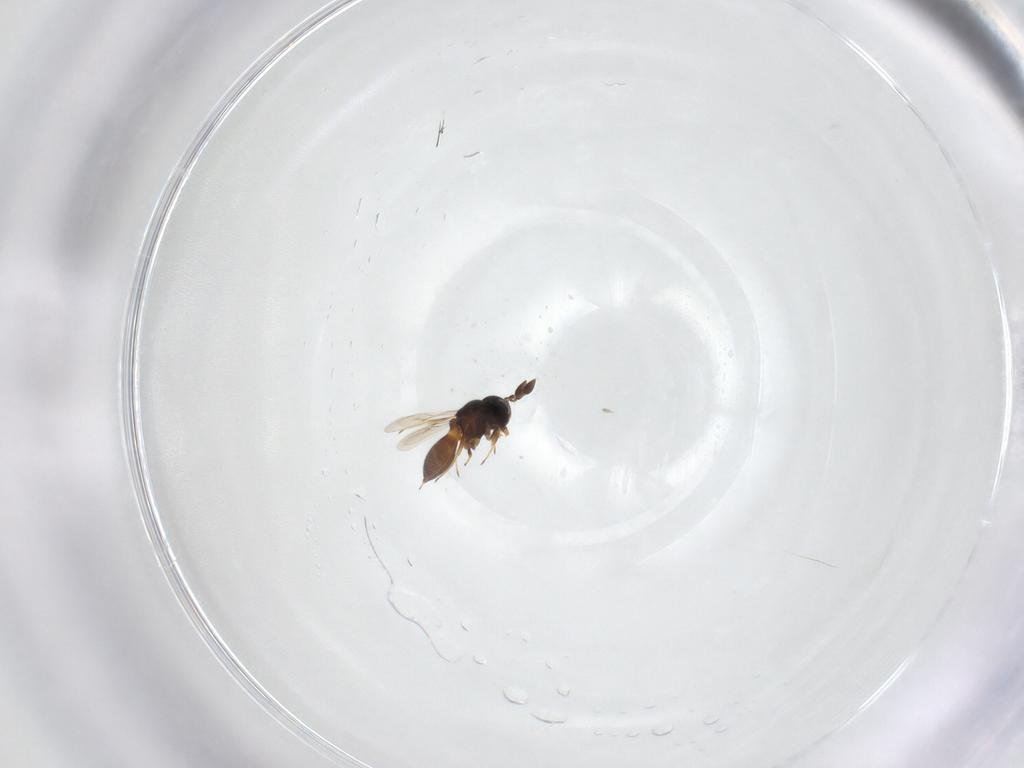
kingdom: Animalia
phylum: Arthropoda
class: Insecta
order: Hymenoptera
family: Scelionidae
